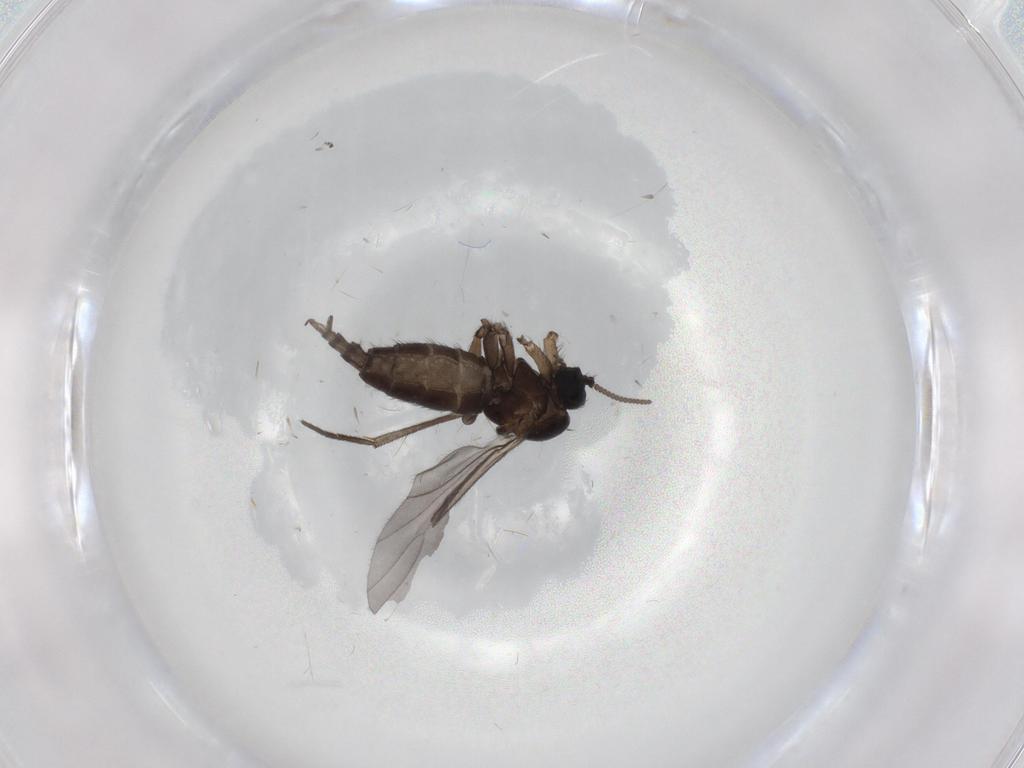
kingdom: Animalia
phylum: Arthropoda
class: Insecta
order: Diptera
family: Sciaridae
